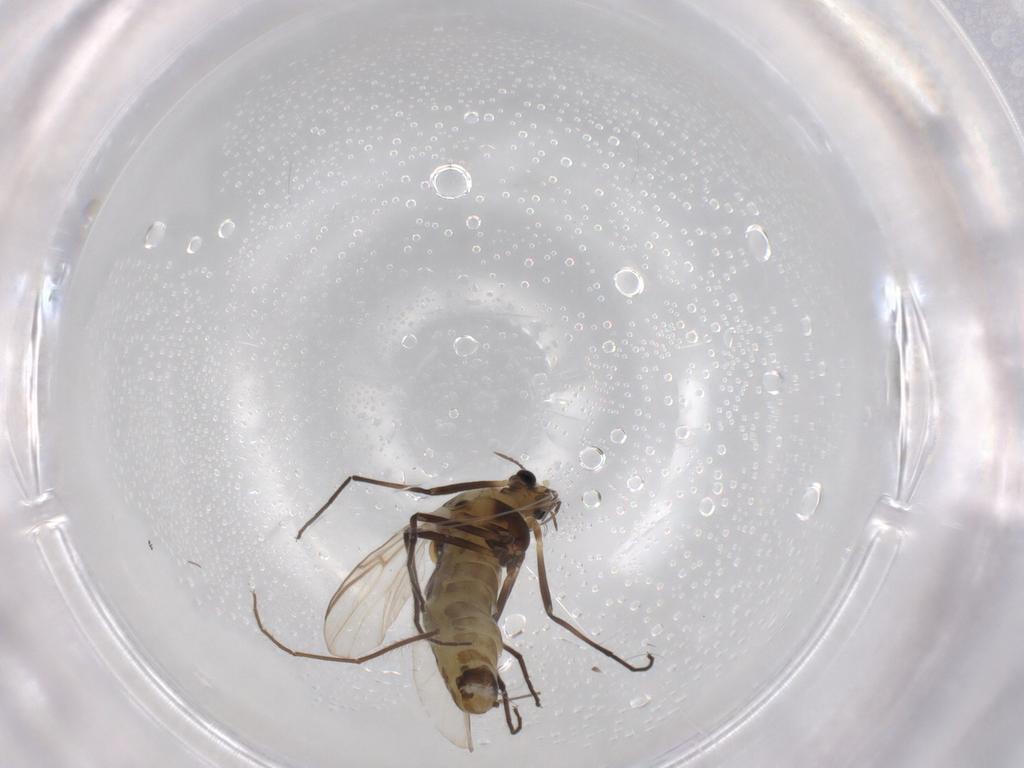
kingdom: Animalia
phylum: Arthropoda
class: Insecta
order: Diptera
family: Chironomidae
